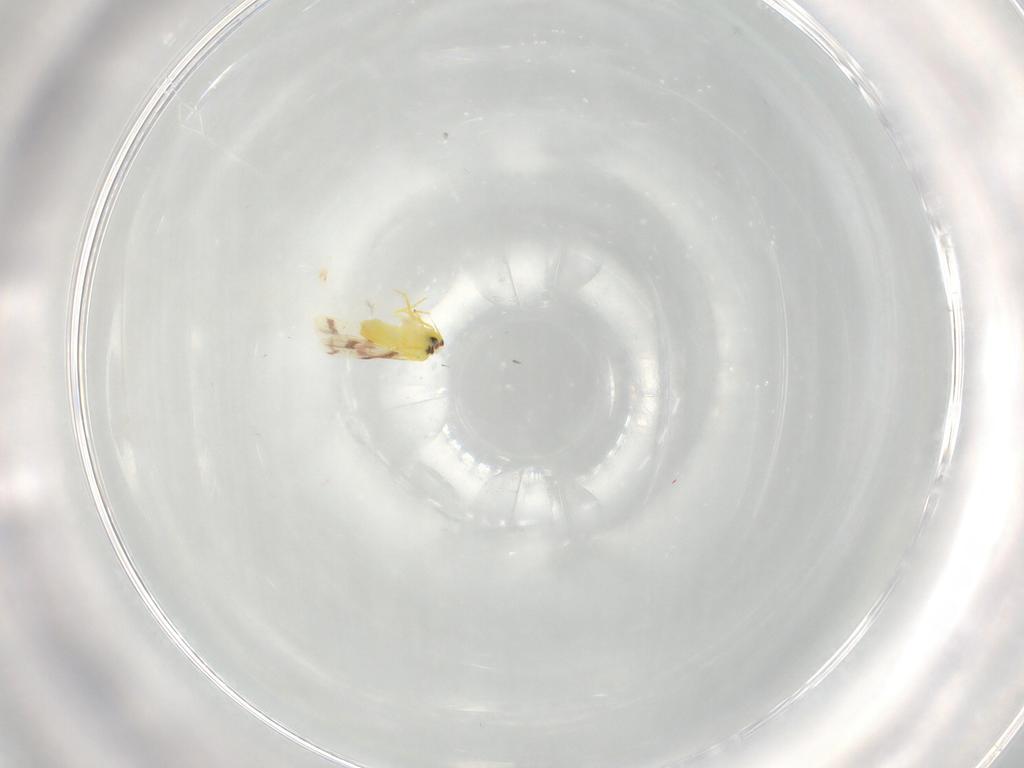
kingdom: Animalia
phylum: Arthropoda
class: Insecta
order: Hemiptera
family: Aleyrodidae
